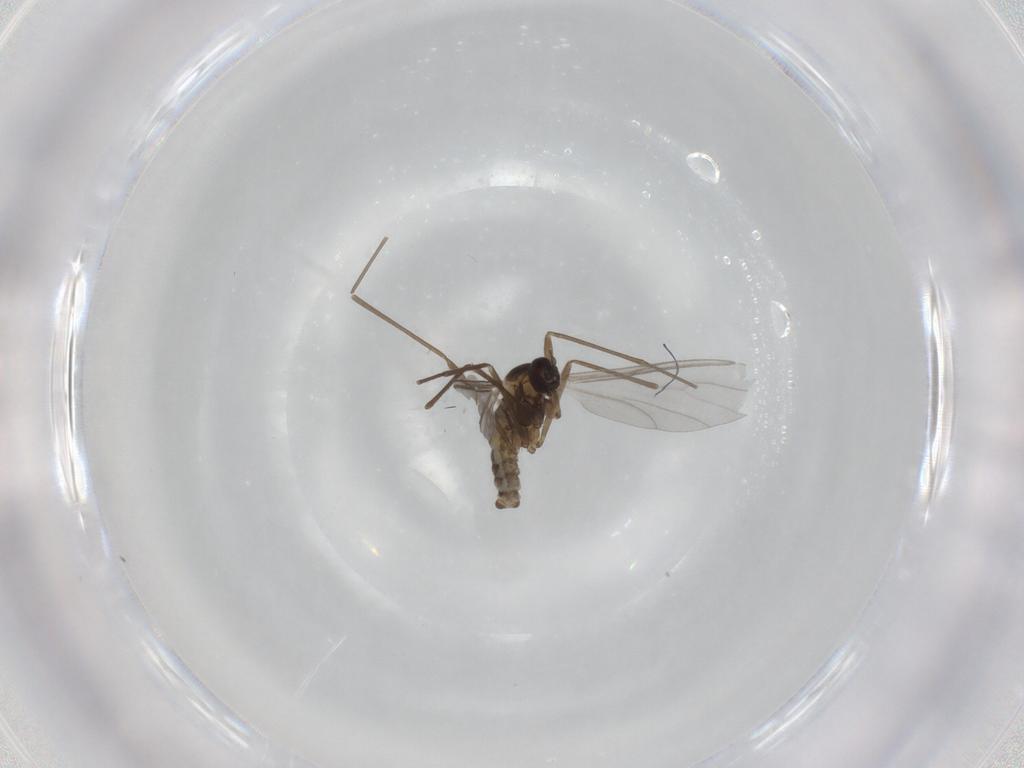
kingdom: Animalia
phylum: Arthropoda
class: Insecta
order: Diptera
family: Cecidomyiidae
